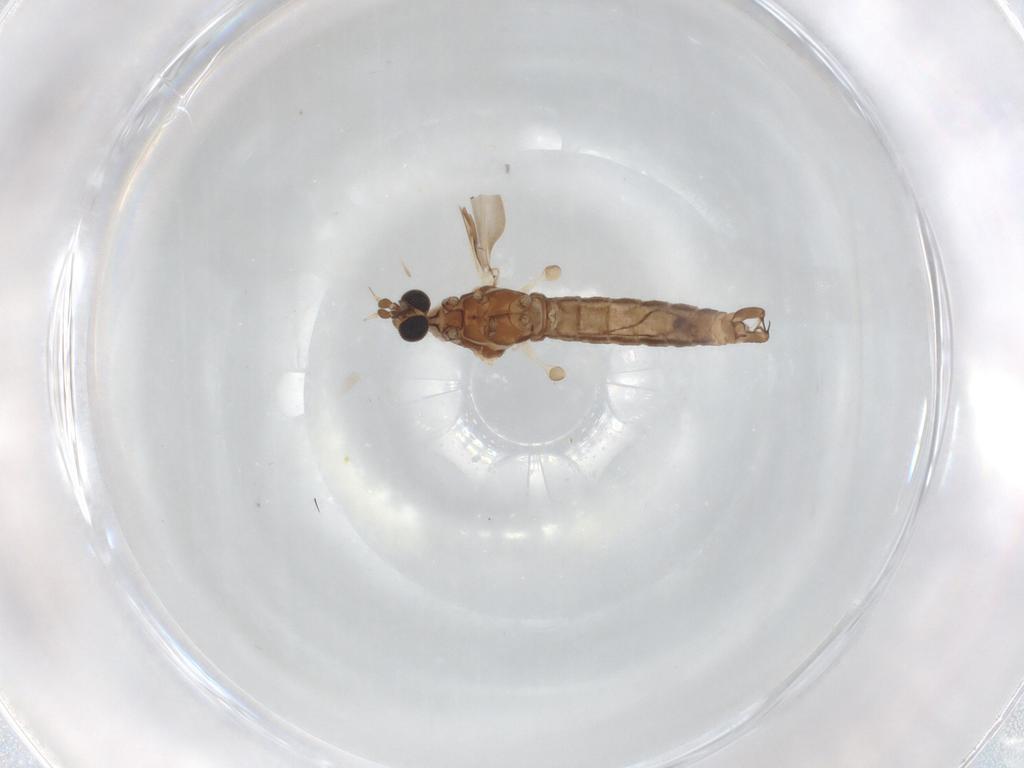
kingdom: Animalia
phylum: Arthropoda
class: Insecta
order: Diptera
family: Limoniidae
